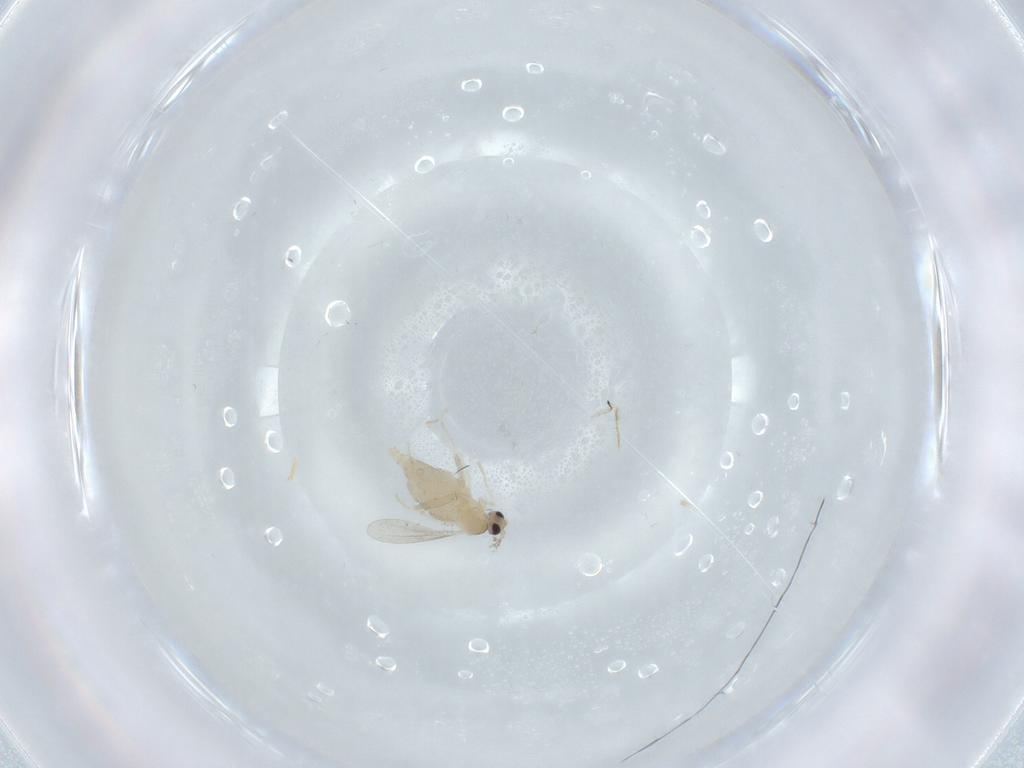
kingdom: Animalia
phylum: Arthropoda
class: Insecta
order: Diptera
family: Cecidomyiidae
